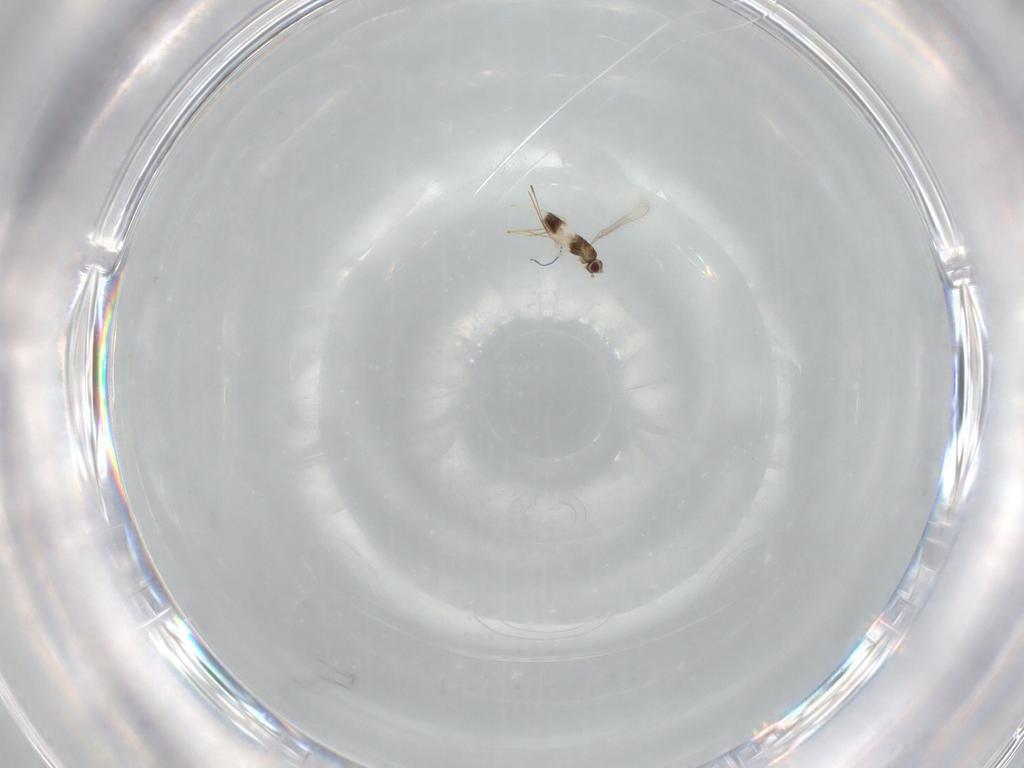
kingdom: Animalia
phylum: Arthropoda
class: Insecta
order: Hymenoptera
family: Mymaridae
